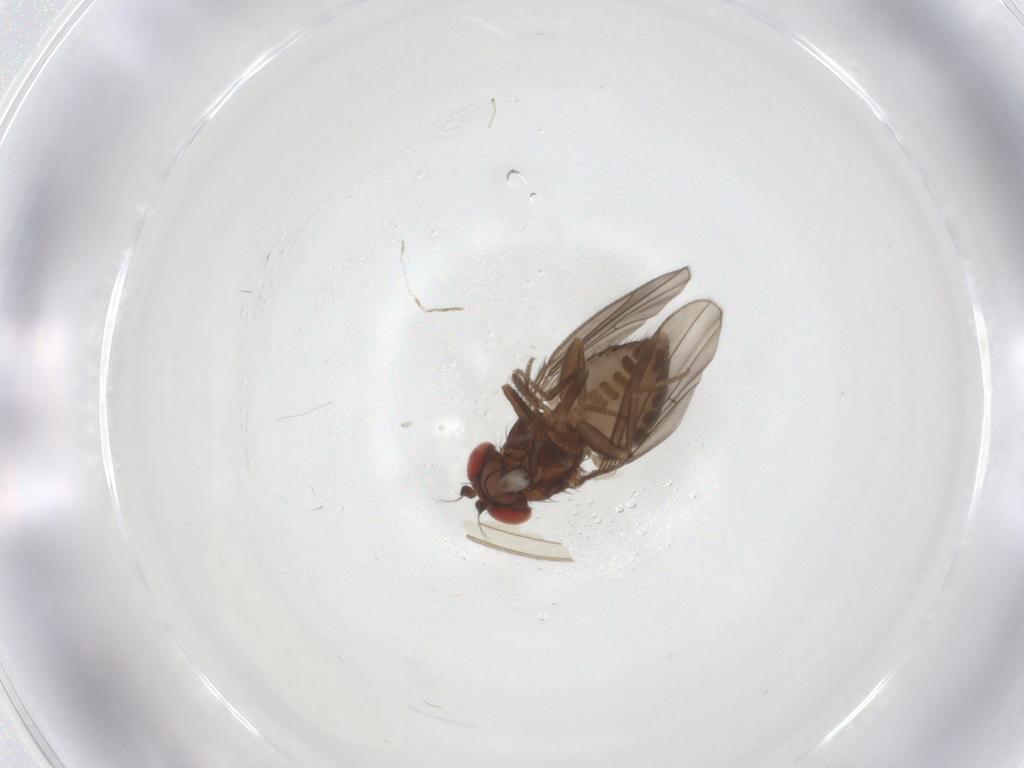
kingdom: Animalia
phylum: Arthropoda
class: Insecta
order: Diptera
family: Drosophilidae
